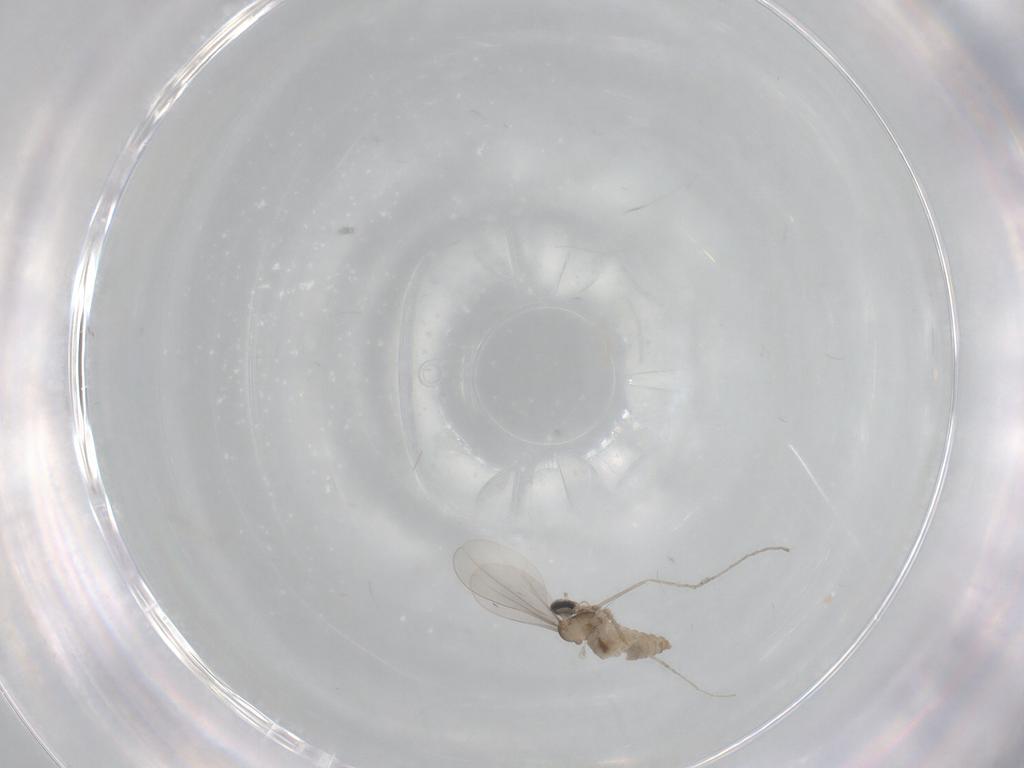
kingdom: Animalia
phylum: Arthropoda
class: Insecta
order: Diptera
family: Cecidomyiidae
